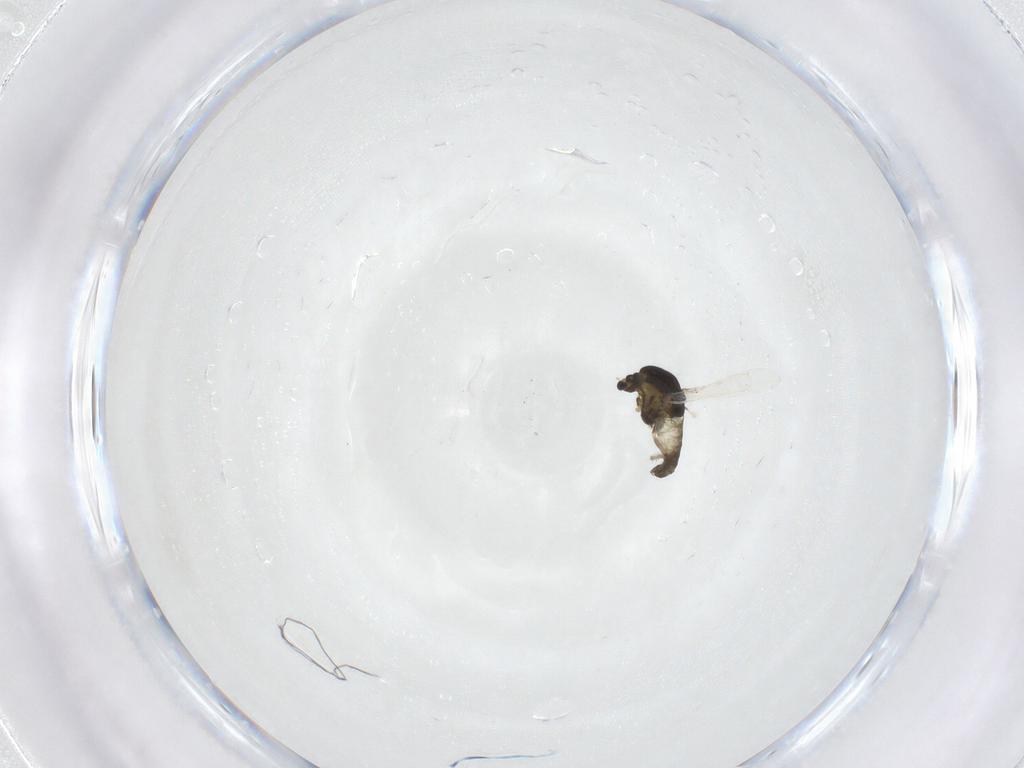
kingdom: Animalia
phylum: Arthropoda
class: Insecta
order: Diptera
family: Chironomidae
